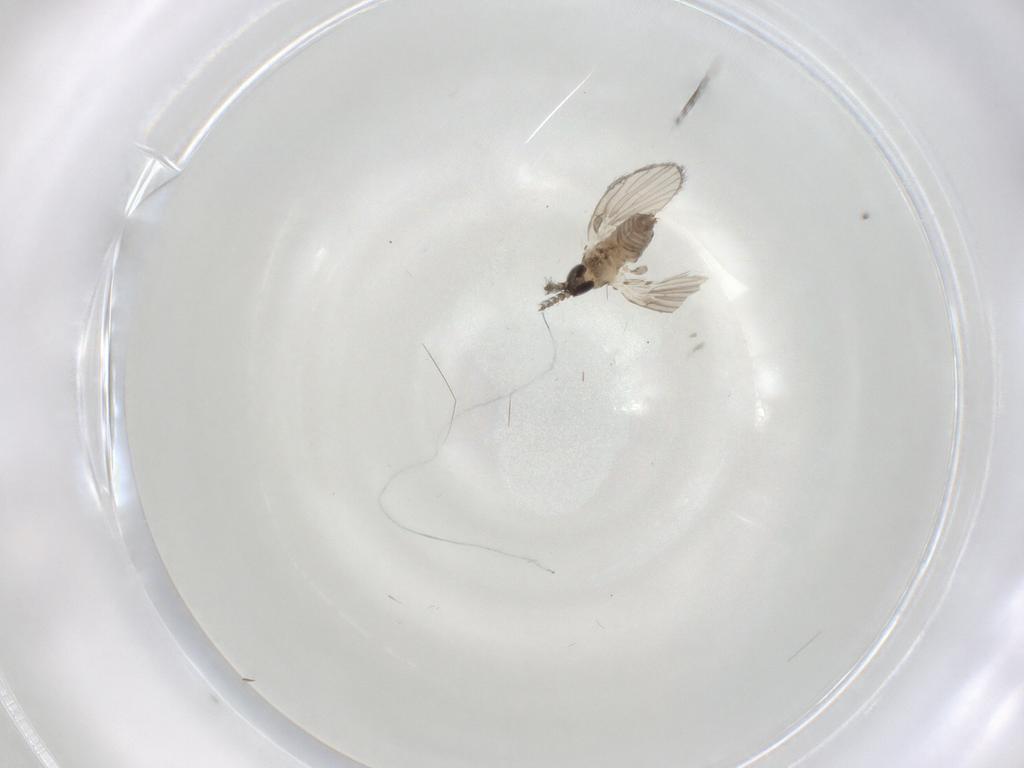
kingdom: Animalia
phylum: Arthropoda
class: Insecta
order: Diptera
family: Psychodidae
